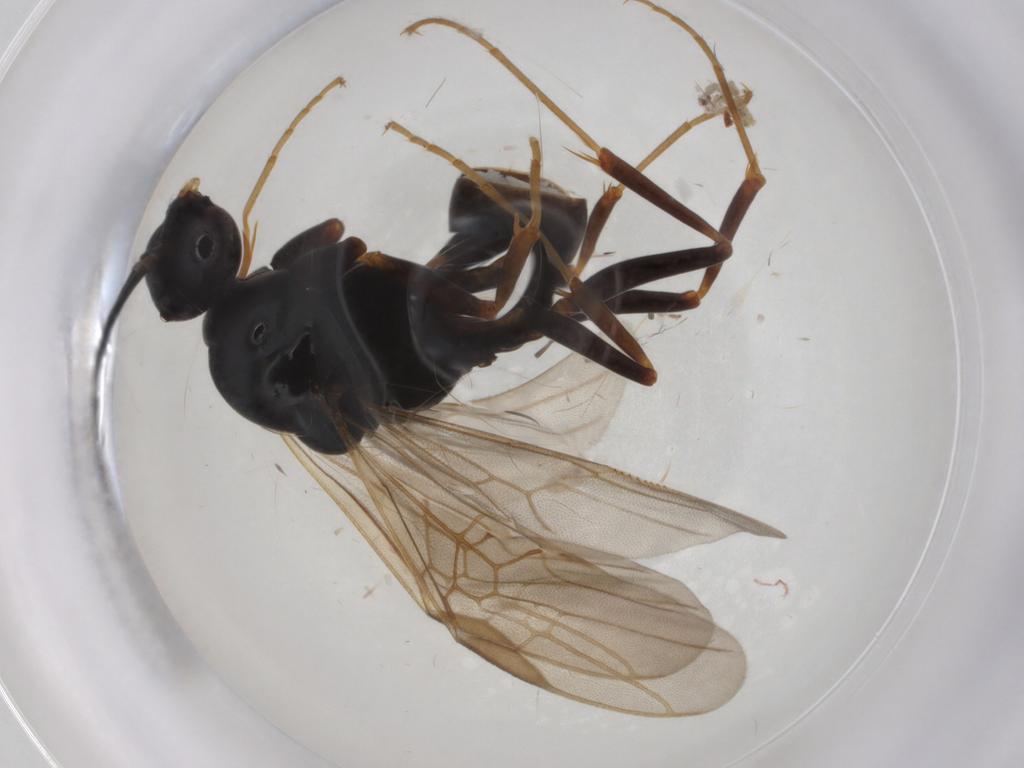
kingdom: Animalia
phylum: Arthropoda
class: Insecta
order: Hymenoptera
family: Formicidae
